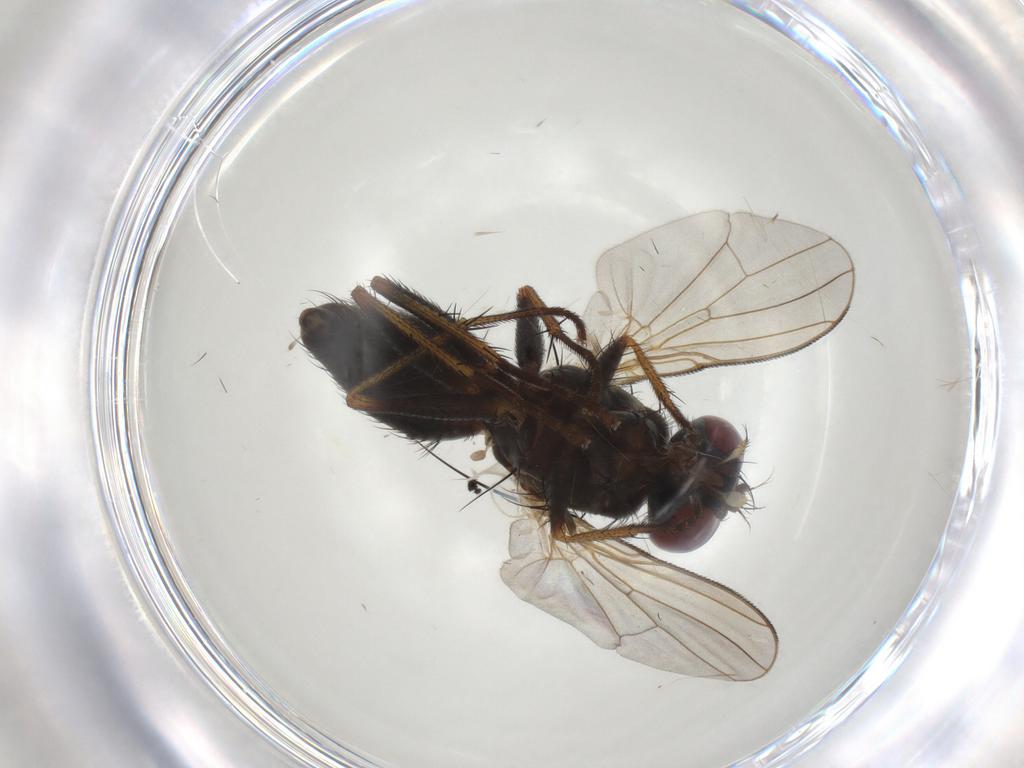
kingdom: Animalia
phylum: Arthropoda
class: Insecta
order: Diptera
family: Muscidae
